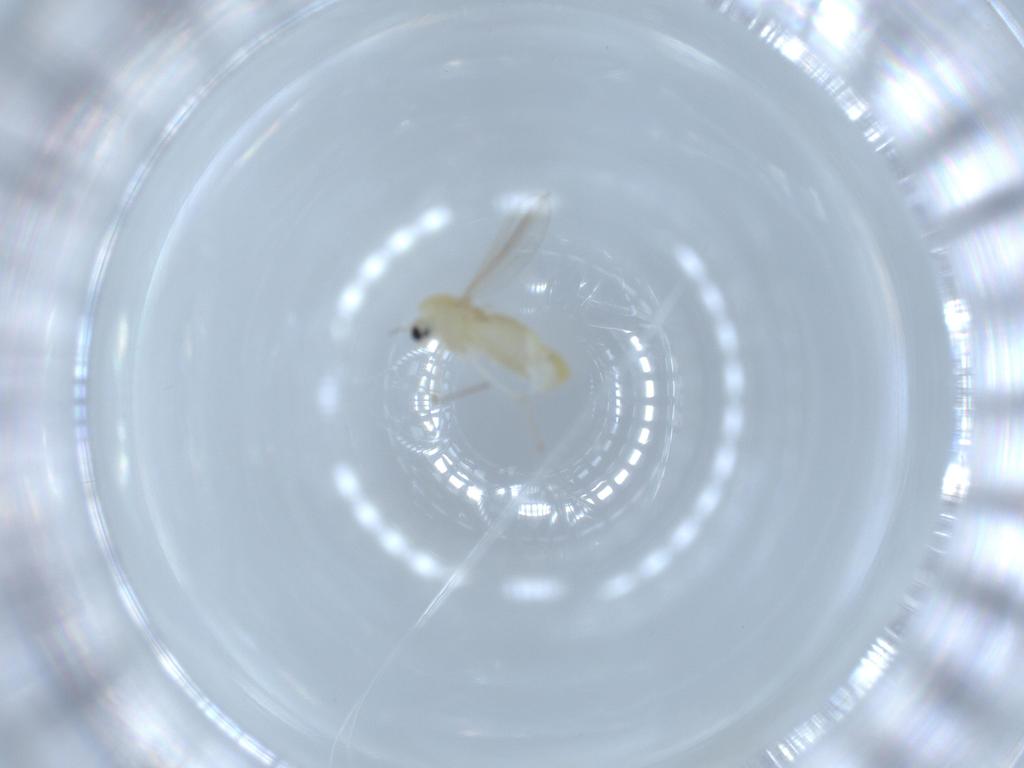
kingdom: Animalia
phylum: Arthropoda
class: Insecta
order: Diptera
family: Chironomidae
